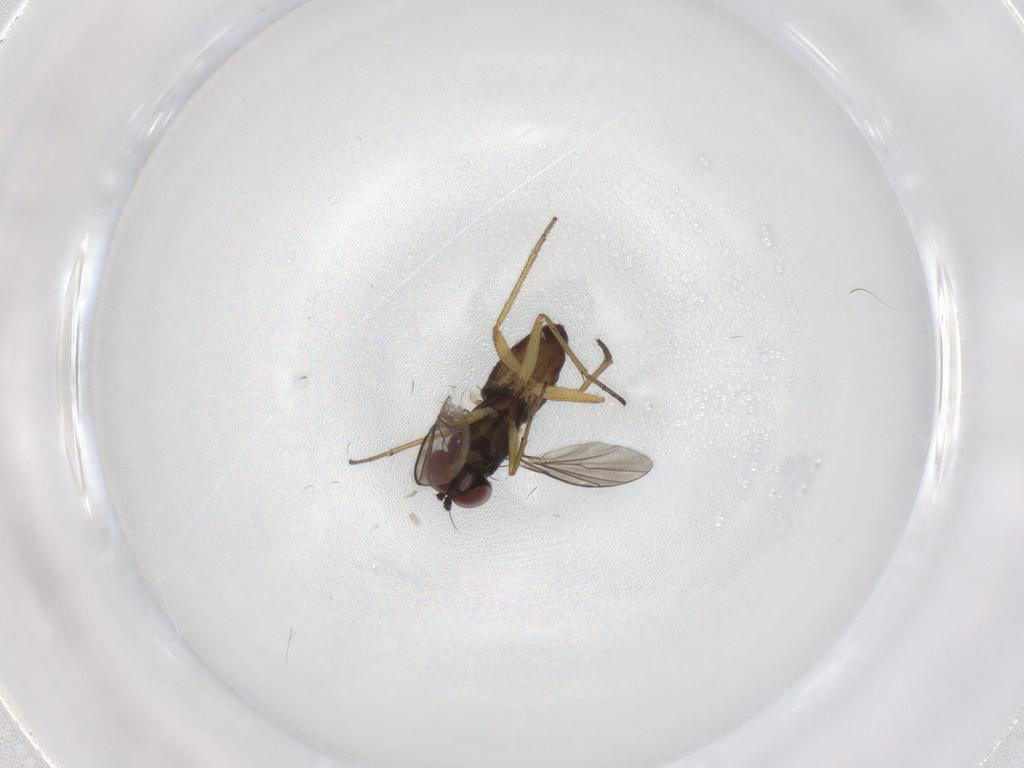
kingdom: Animalia
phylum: Arthropoda
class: Insecta
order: Diptera
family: Dolichopodidae
